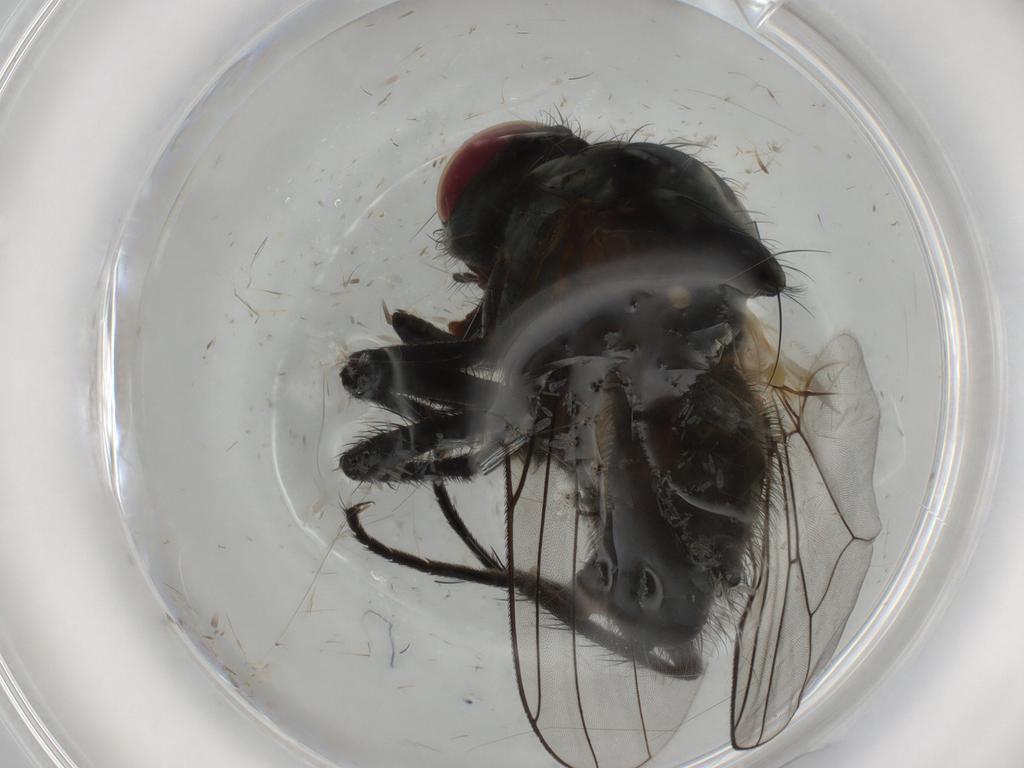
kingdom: Animalia
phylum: Arthropoda
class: Insecta
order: Diptera
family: Anthomyiidae
